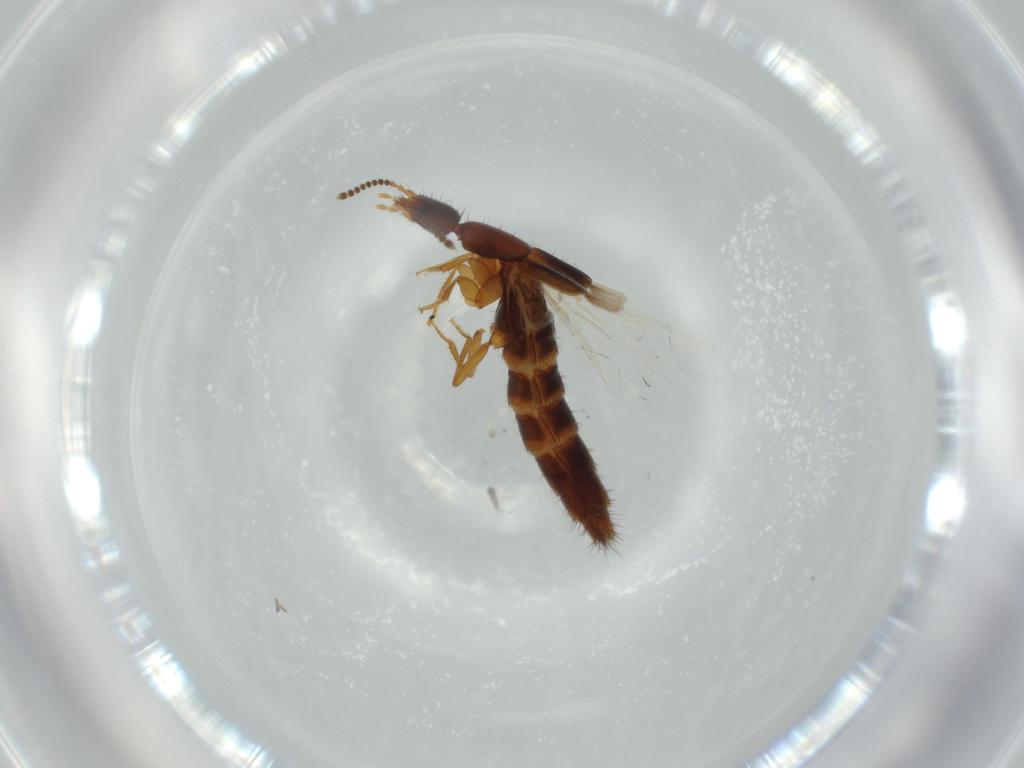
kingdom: Animalia
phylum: Arthropoda
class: Insecta
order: Coleoptera
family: Staphylinidae
